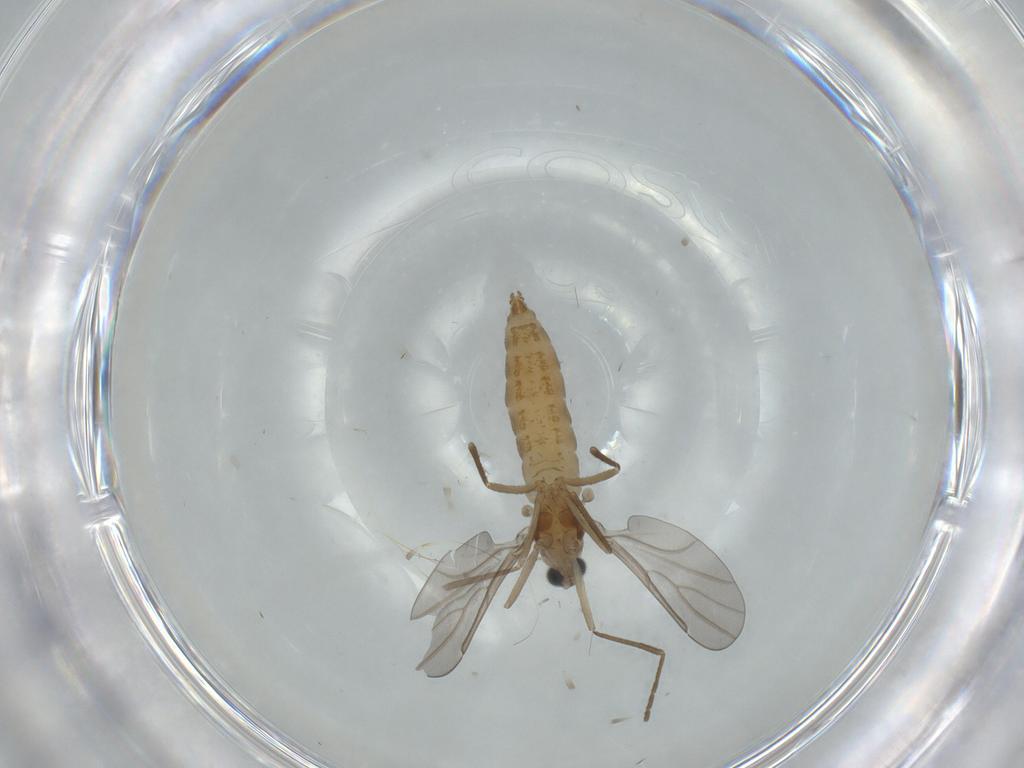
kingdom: Animalia
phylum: Arthropoda
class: Insecta
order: Diptera
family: Cecidomyiidae
